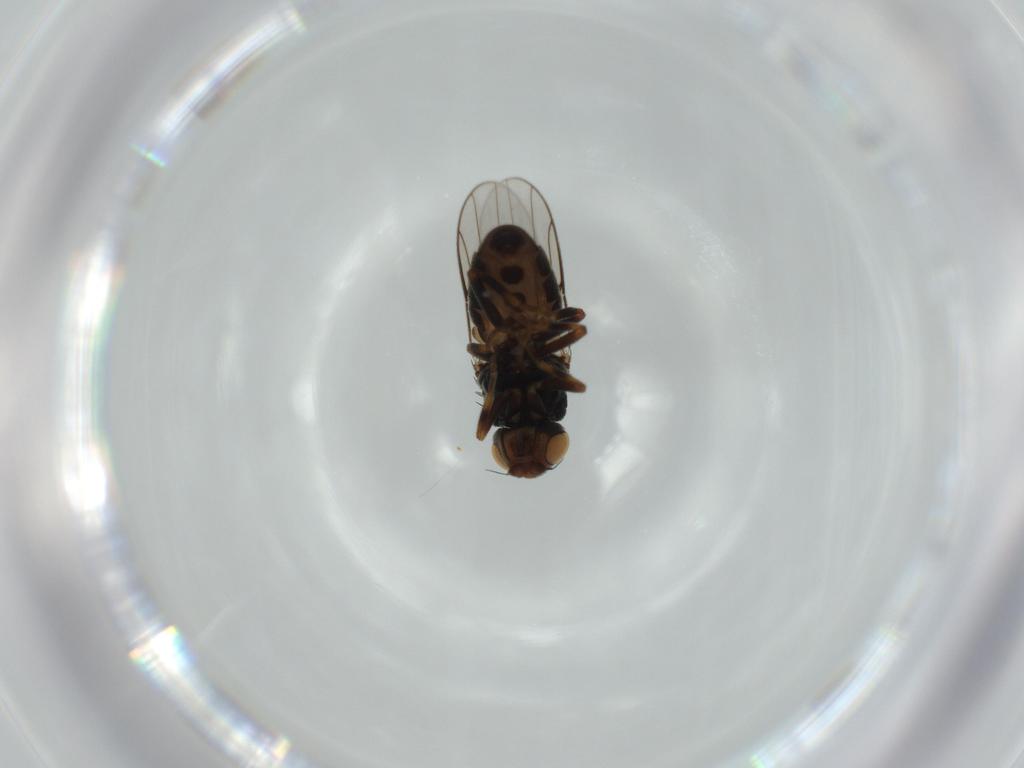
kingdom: Animalia
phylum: Arthropoda
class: Insecta
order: Diptera
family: Chloropidae
